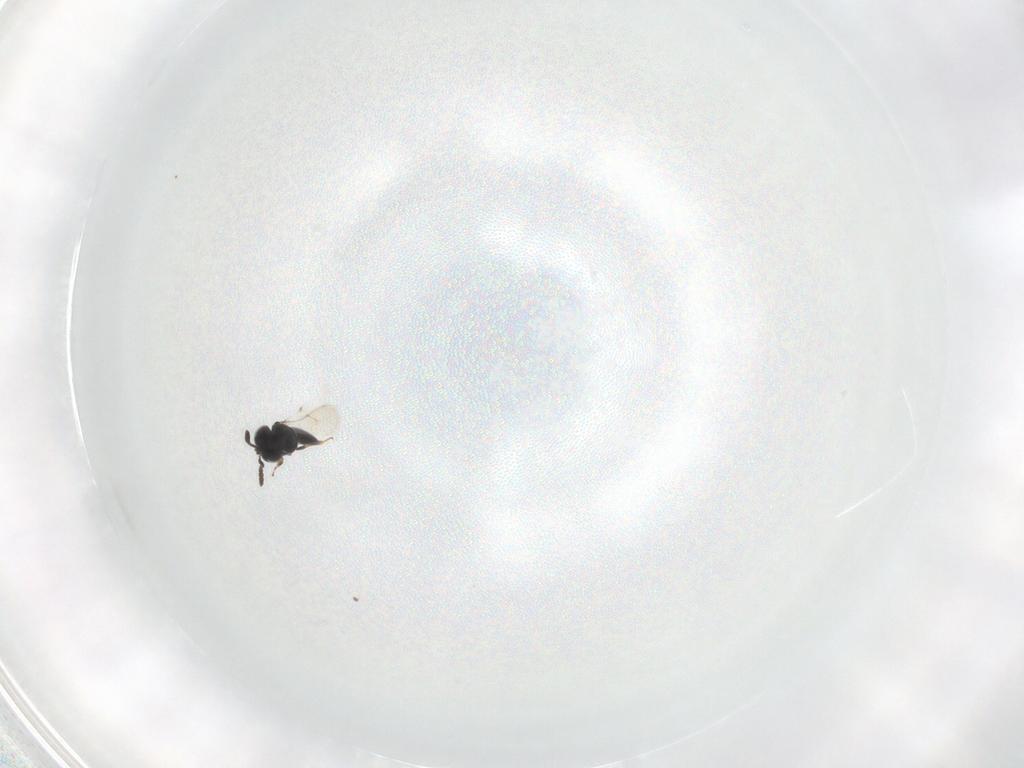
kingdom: Animalia
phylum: Arthropoda
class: Insecta
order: Hymenoptera
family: Scelionidae
